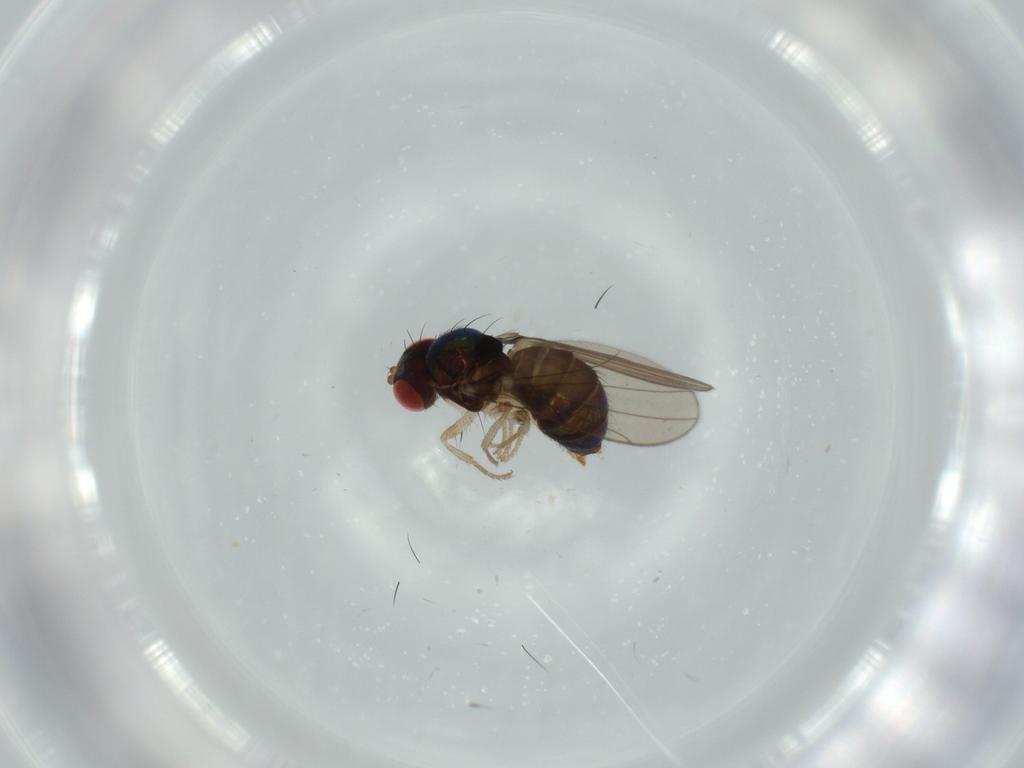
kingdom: Animalia
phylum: Arthropoda
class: Insecta
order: Diptera
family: Drosophilidae
